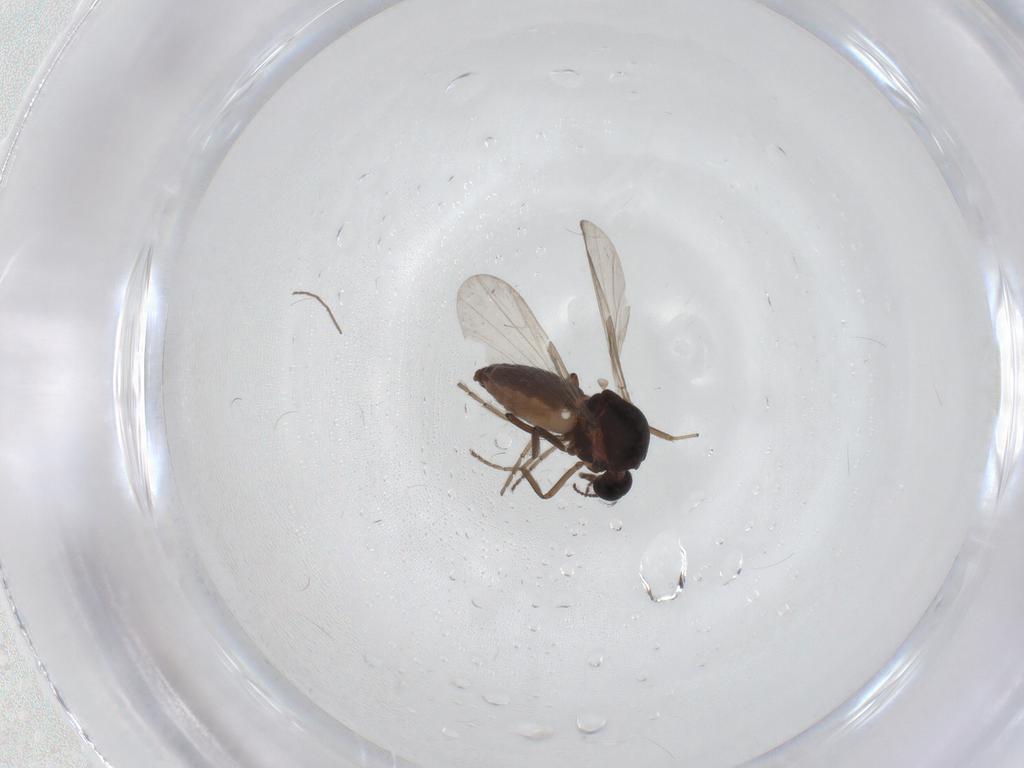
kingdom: Animalia
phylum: Arthropoda
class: Insecta
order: Diptera
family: Ceratopogonidae
